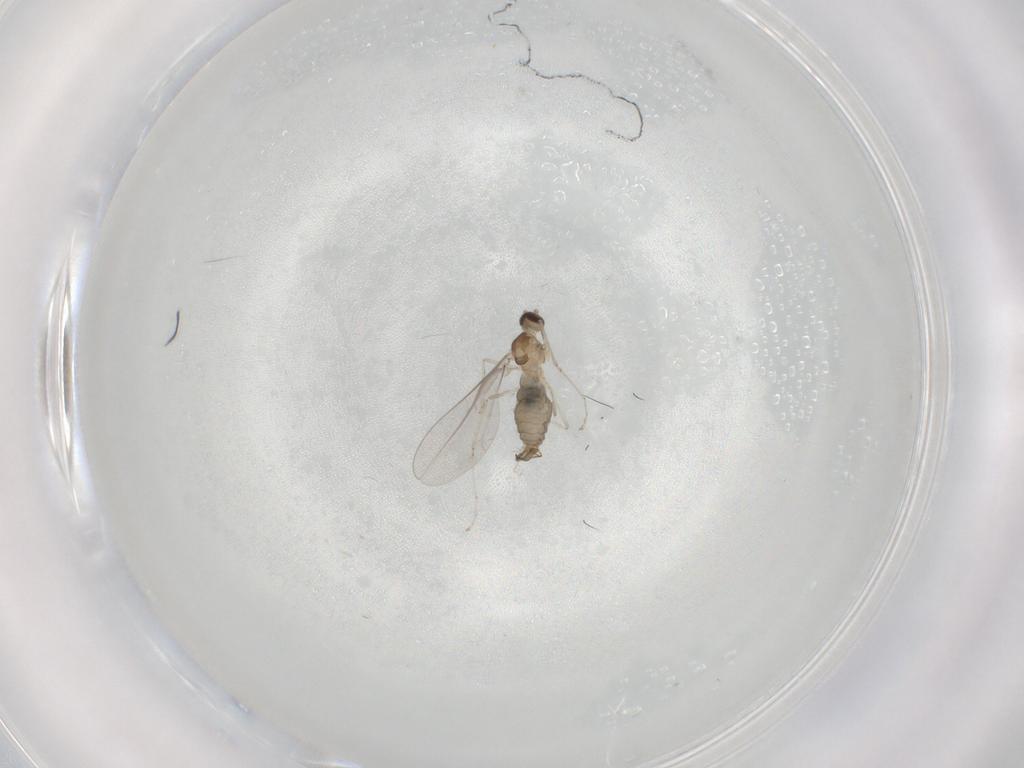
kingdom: Animalia
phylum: Arthropoda
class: Insecta
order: Diptera
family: Cecidomyiidae
